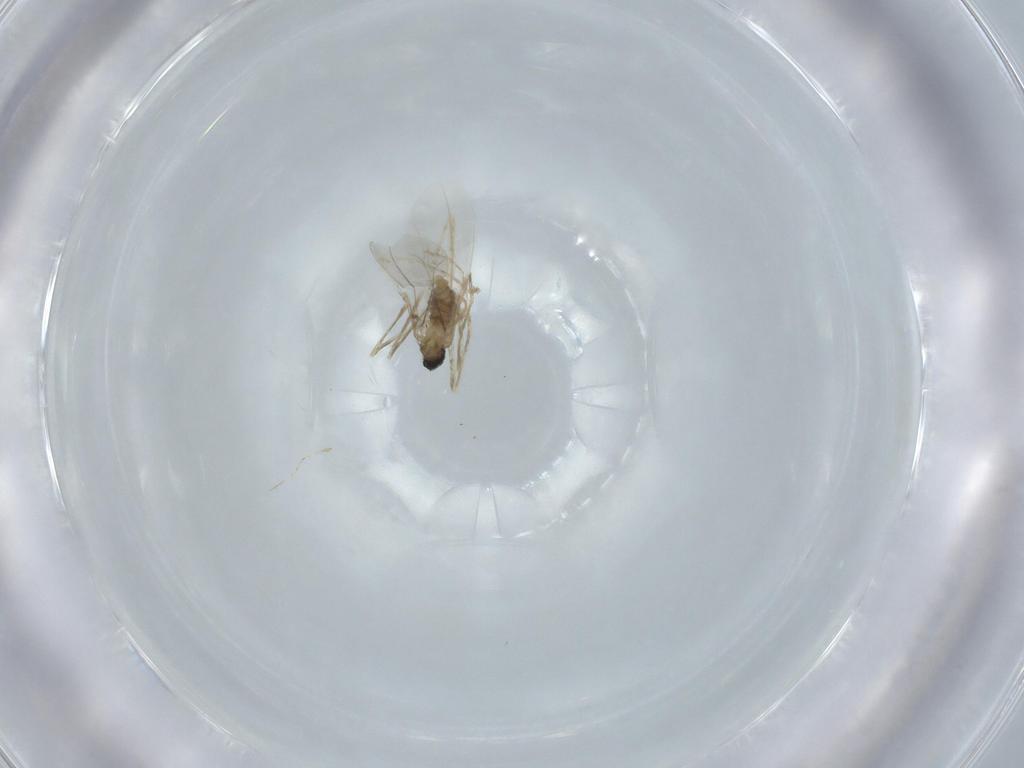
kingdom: Animalia
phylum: Arthropoda
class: Insecta
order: Diptera
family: Cecidomyiidae
